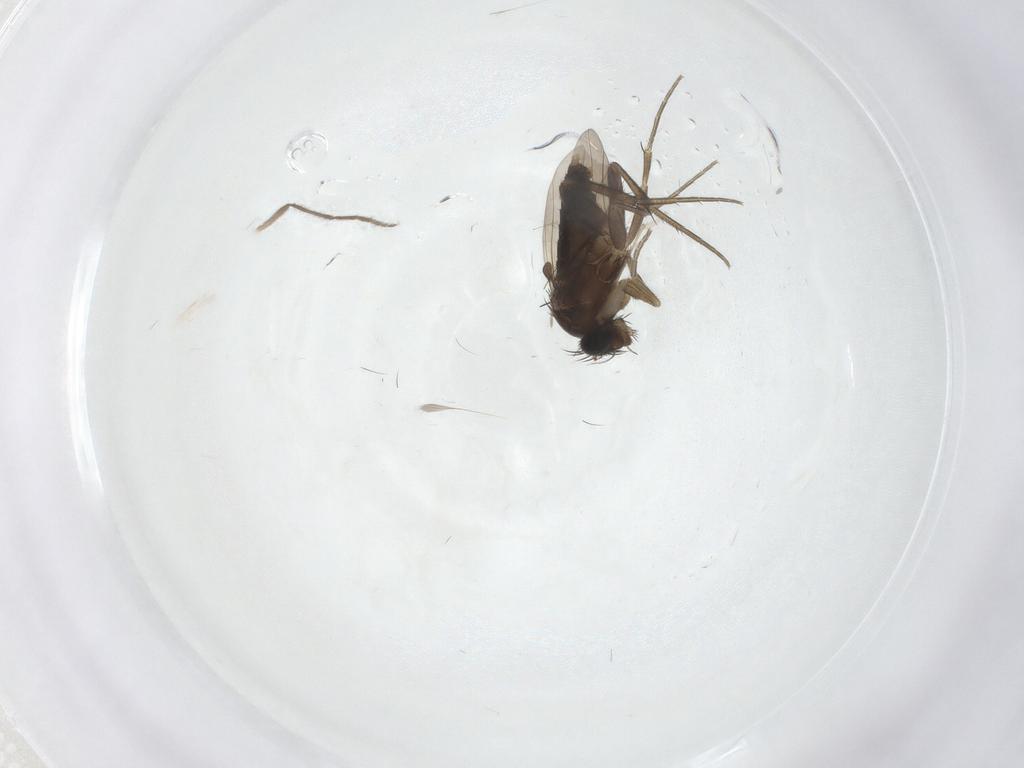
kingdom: Animalia
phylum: Arthropoda
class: Insecta
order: Diptera
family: Phoridae
